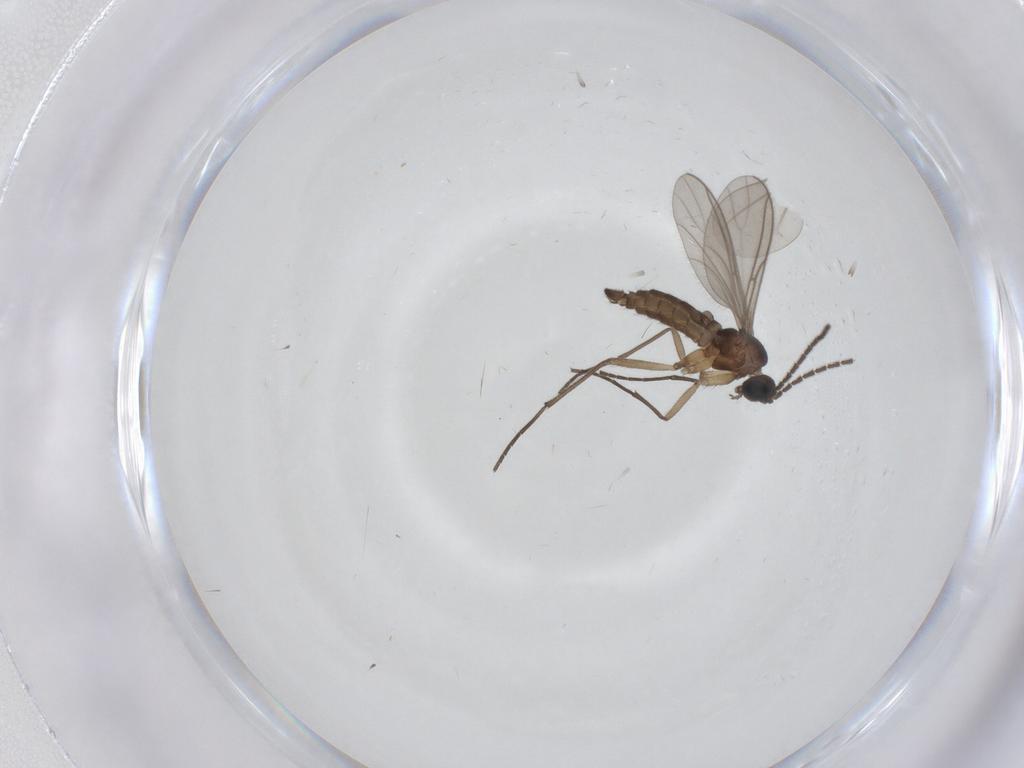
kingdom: Animalia
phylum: Arthropoda
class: Insecta
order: Diptera
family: Cecidomyiidae
